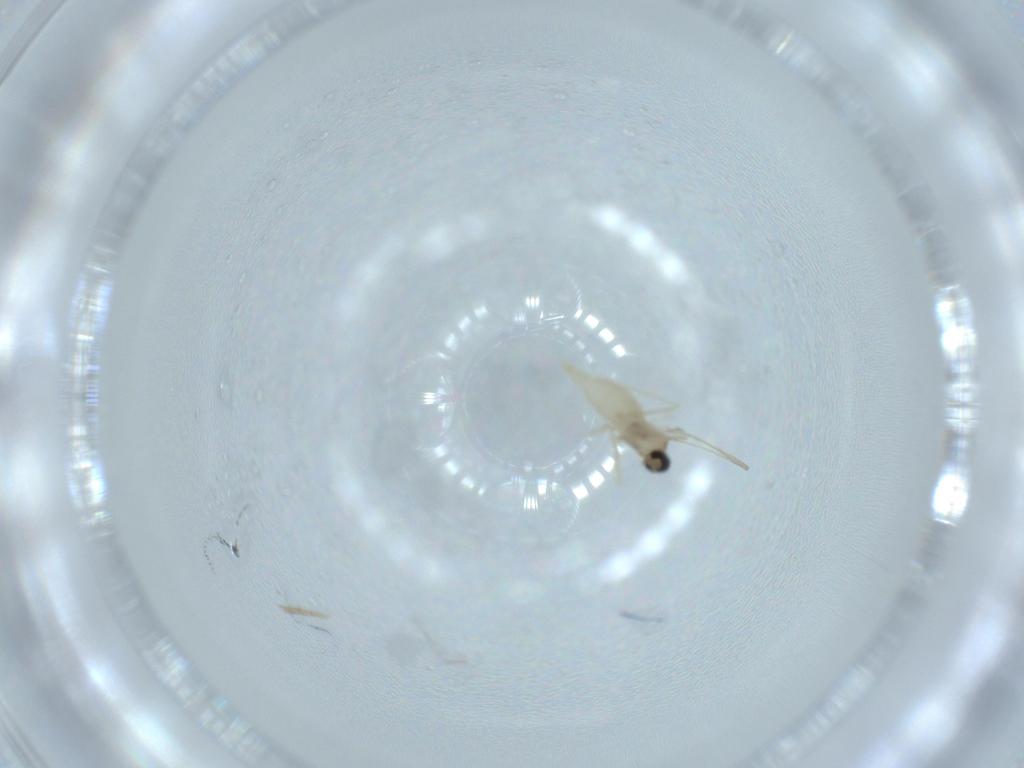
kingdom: Animalia
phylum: Arthropoda
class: Insecta
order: Diptera
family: Cecidomyiidae
